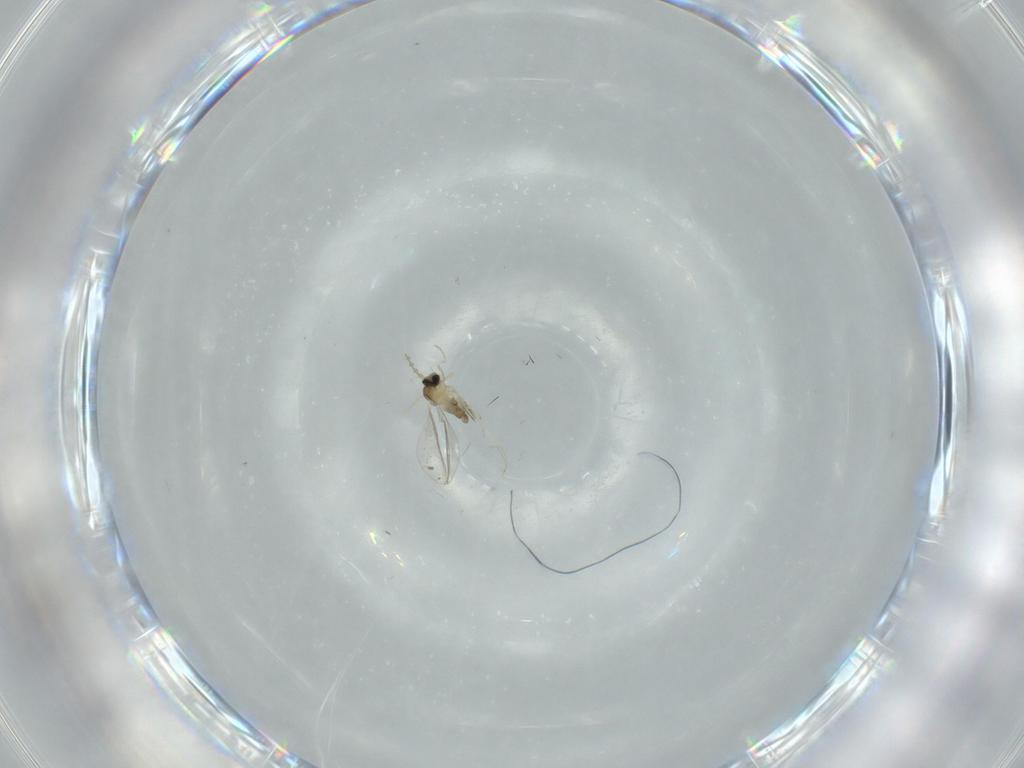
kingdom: Animalia
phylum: Arthropoda
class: Insecta
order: Diptera
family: Cecidomyiidae
